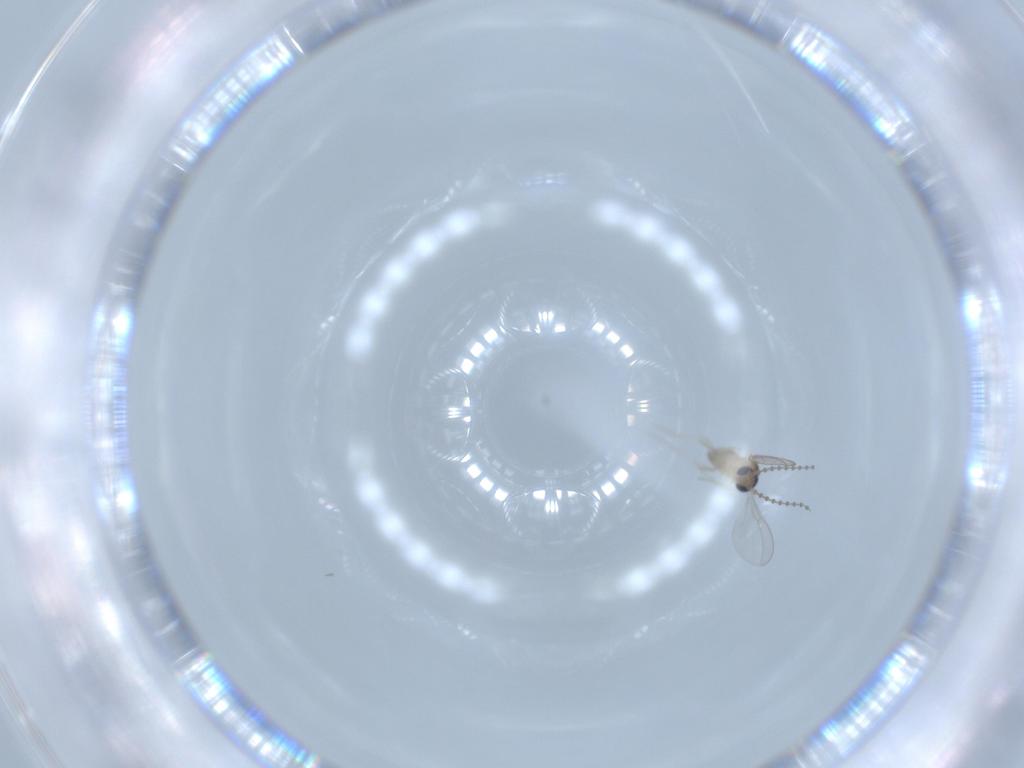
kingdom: Animalia
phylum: Arthropoda
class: Insecta
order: Diptera
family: Cecidomyiidae
